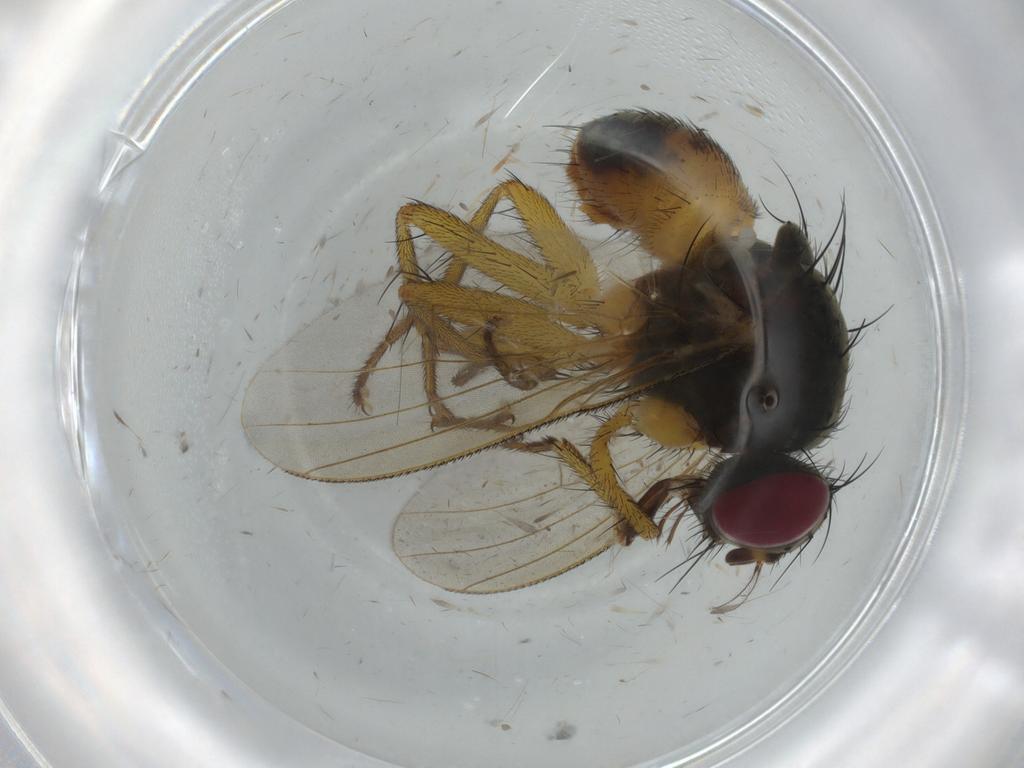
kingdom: Animalia
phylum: Arthropoda
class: Insecta
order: Diptera
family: Muscidae
